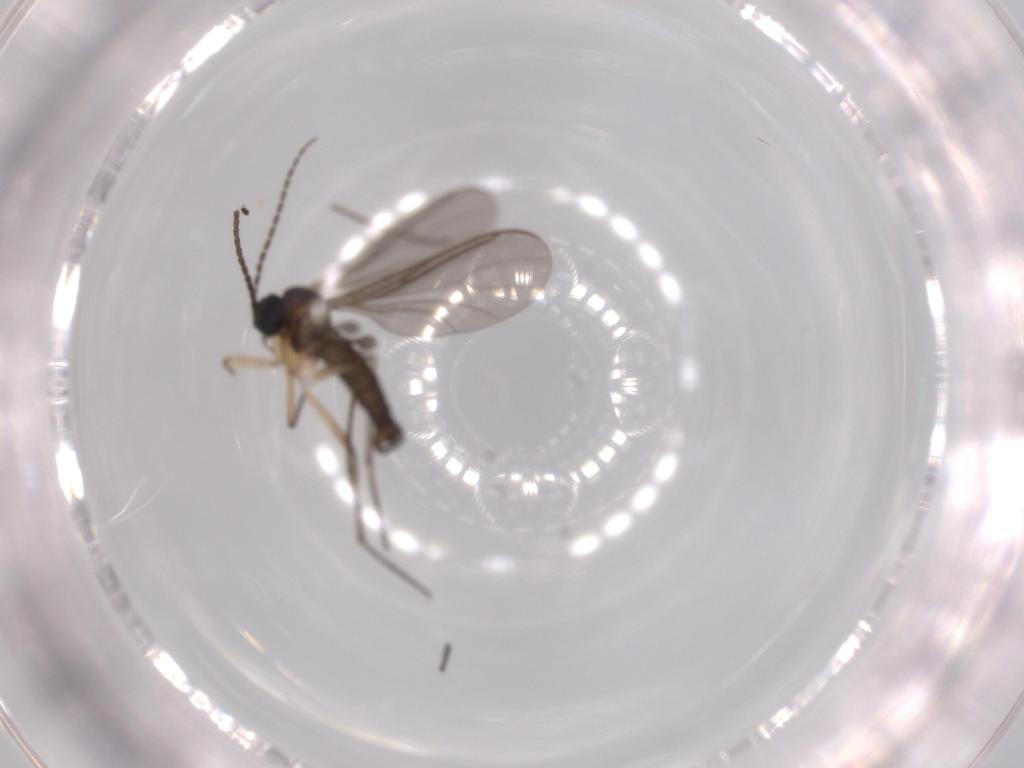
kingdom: Animalia
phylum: Arthropoda
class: Insecta
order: Diptera
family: Sciaridae
